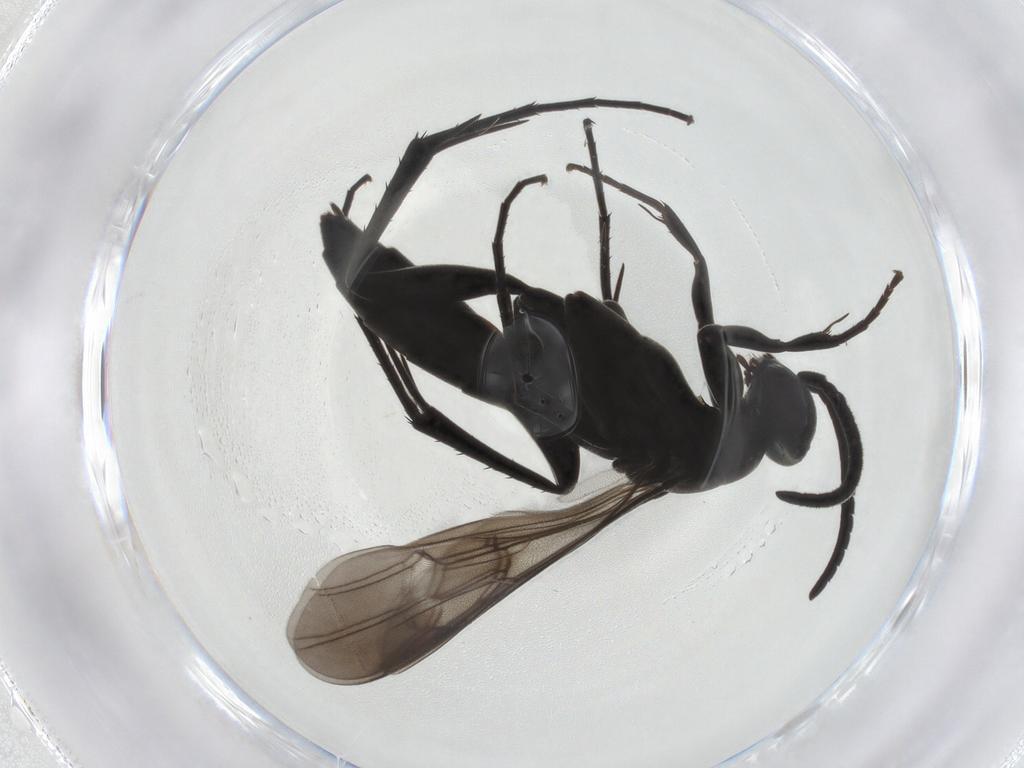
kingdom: Animalia
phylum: Arthropoda
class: Insecta
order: Hymenoptera
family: Pompilidae
